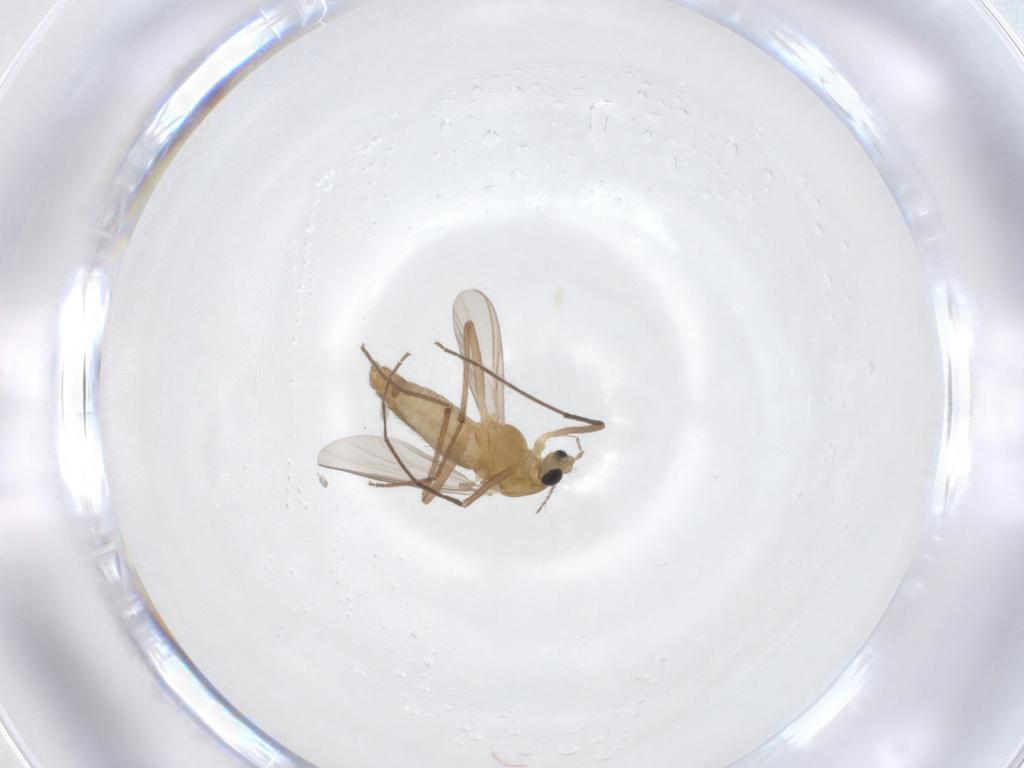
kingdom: Animalia
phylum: Arthropoda
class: Insecta
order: Diptera
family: Chironomidae
